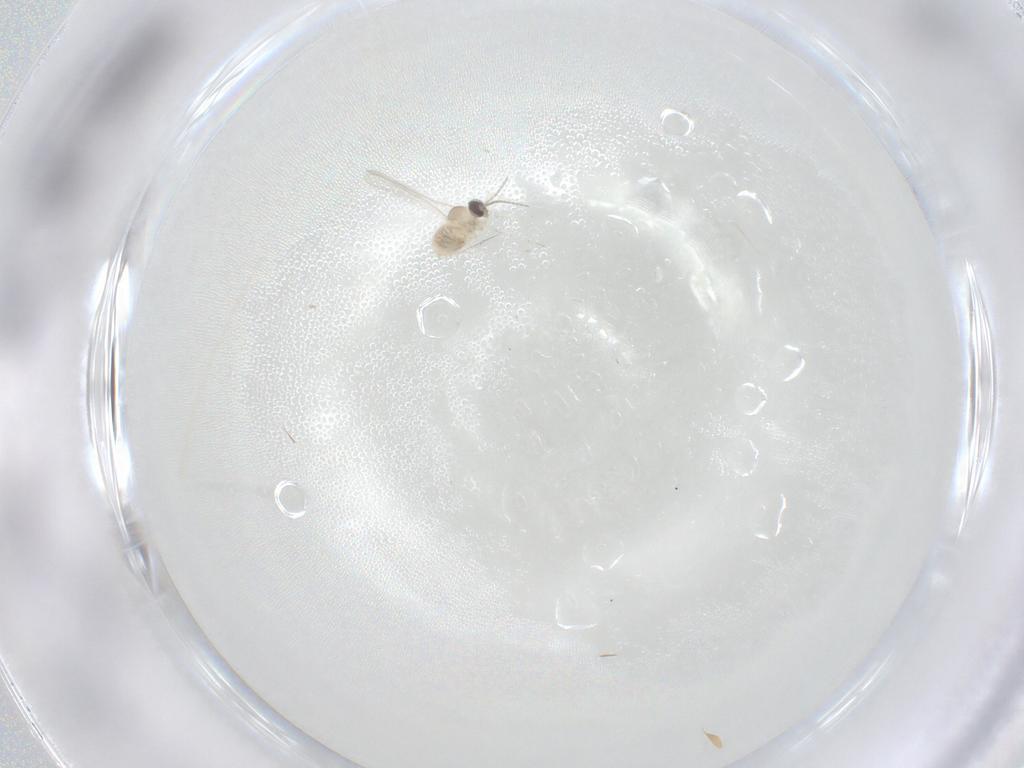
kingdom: Animalia
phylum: Arthropoda
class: Insecta
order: Diptera
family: Cecidomyiidae
